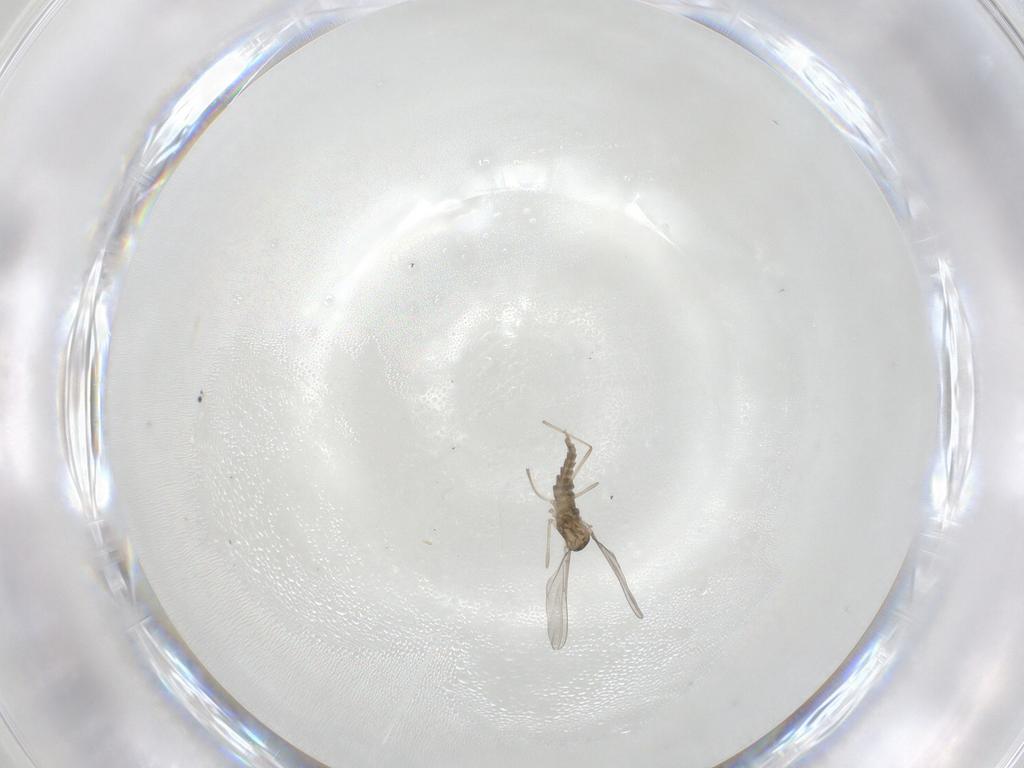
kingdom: Animalia
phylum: Arthropoda
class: Insecta
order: Diptera
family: Cecidomyiidae
